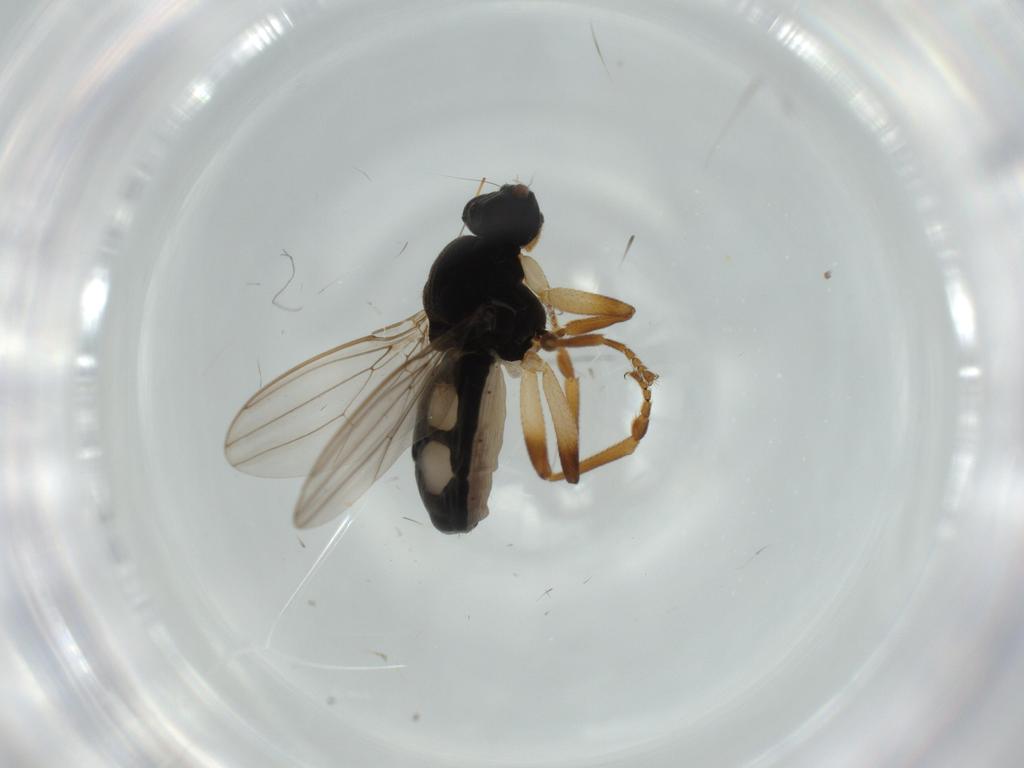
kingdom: Animalia
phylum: Arthropoda
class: Insecta
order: Diptera
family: Sphaeroceridae
